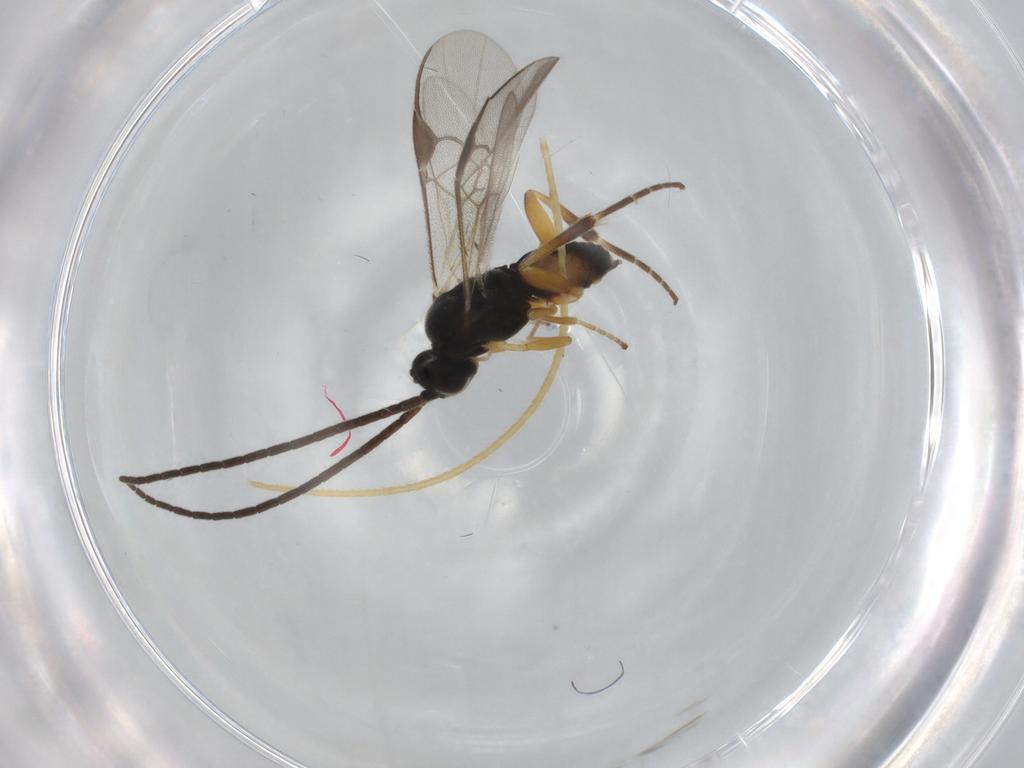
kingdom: Animalia
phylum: Arthropoda
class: Insecta
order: Hymenoptera
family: Braconidae
